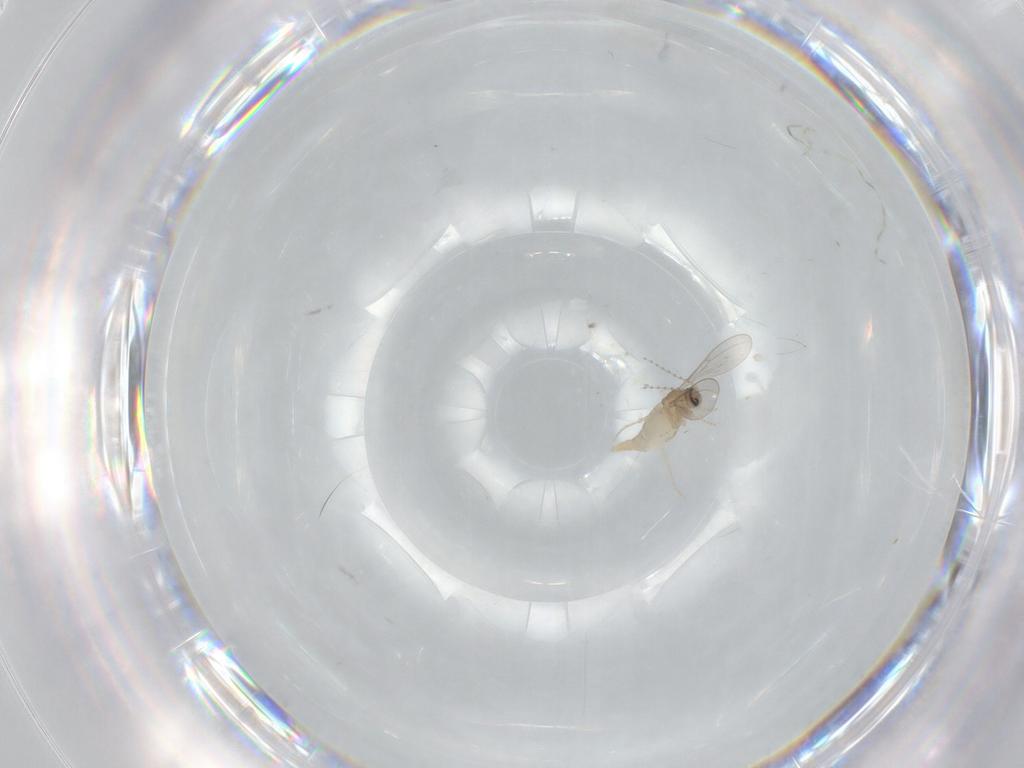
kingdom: Animalia
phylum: Arthropoda
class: Insecta
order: Diptera
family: Cecidomyiidae
